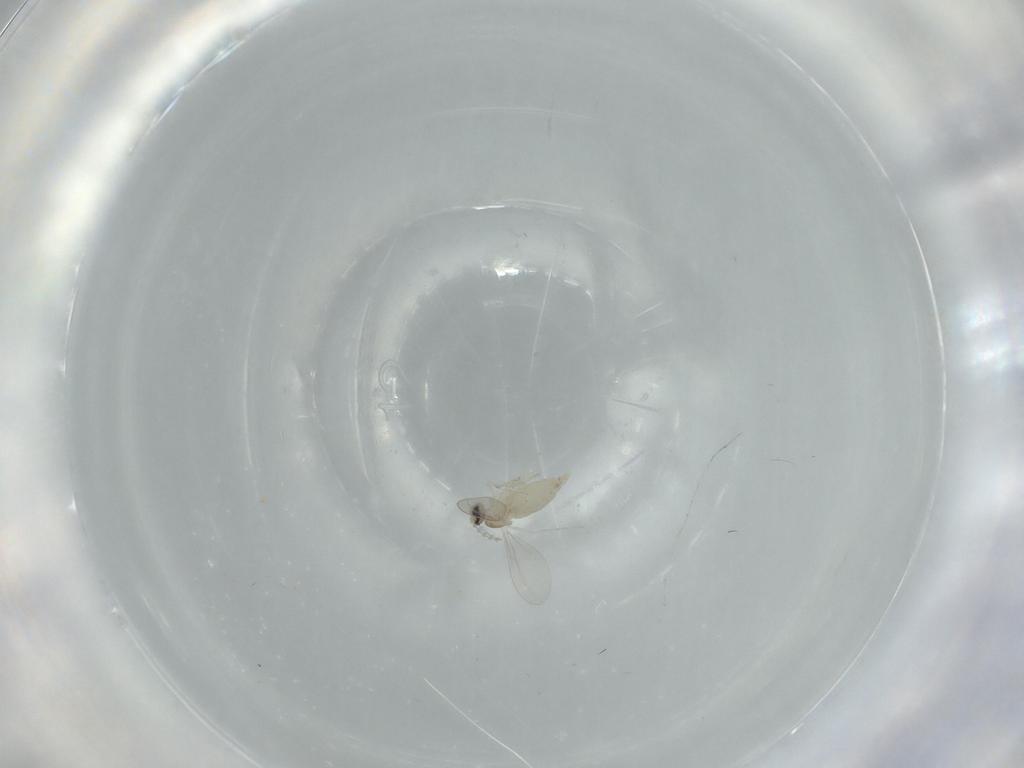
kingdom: Animalia
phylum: Arthropoda
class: Insecta
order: Diptera
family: Cecidomyiidae
